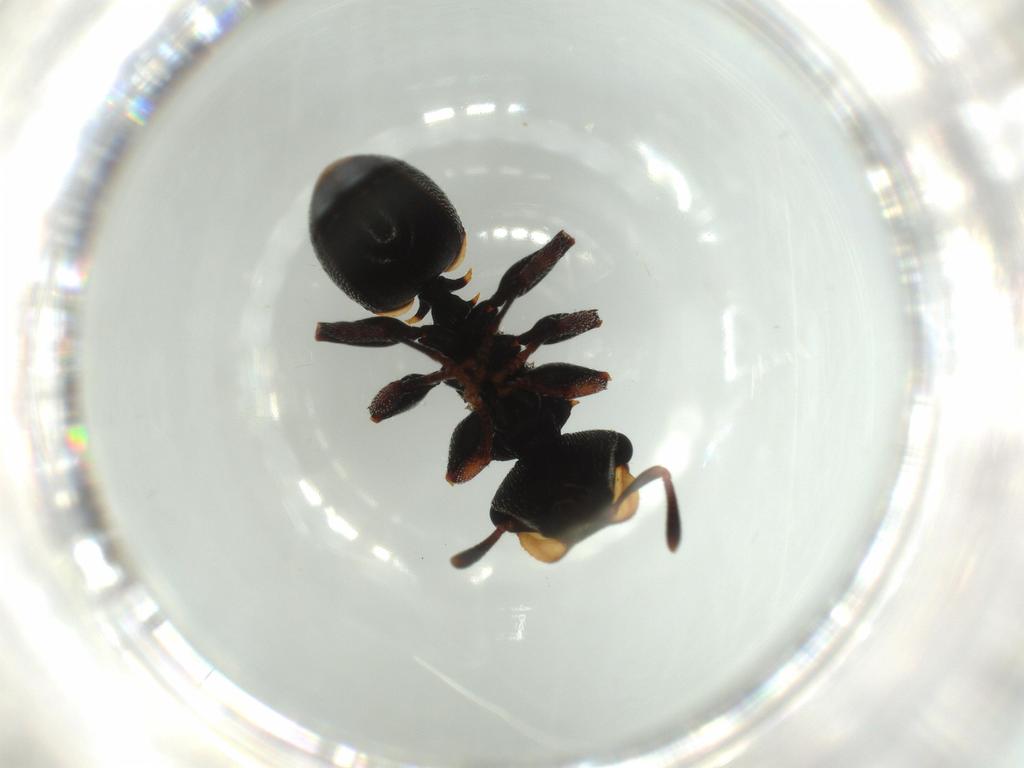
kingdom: Animalia
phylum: Arthropoda
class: Insecta
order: Hymenoptera
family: Formicidae
